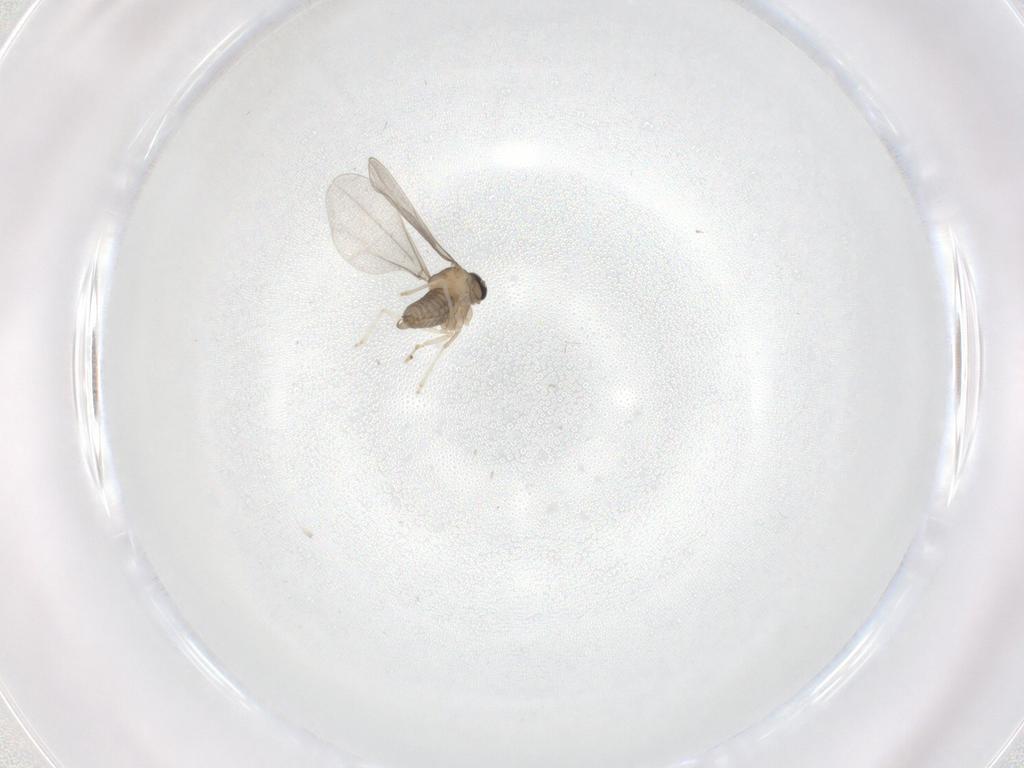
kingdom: Animalia
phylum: Arthropoda
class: Insecta
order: Diptera
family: Cecidomyiidae
